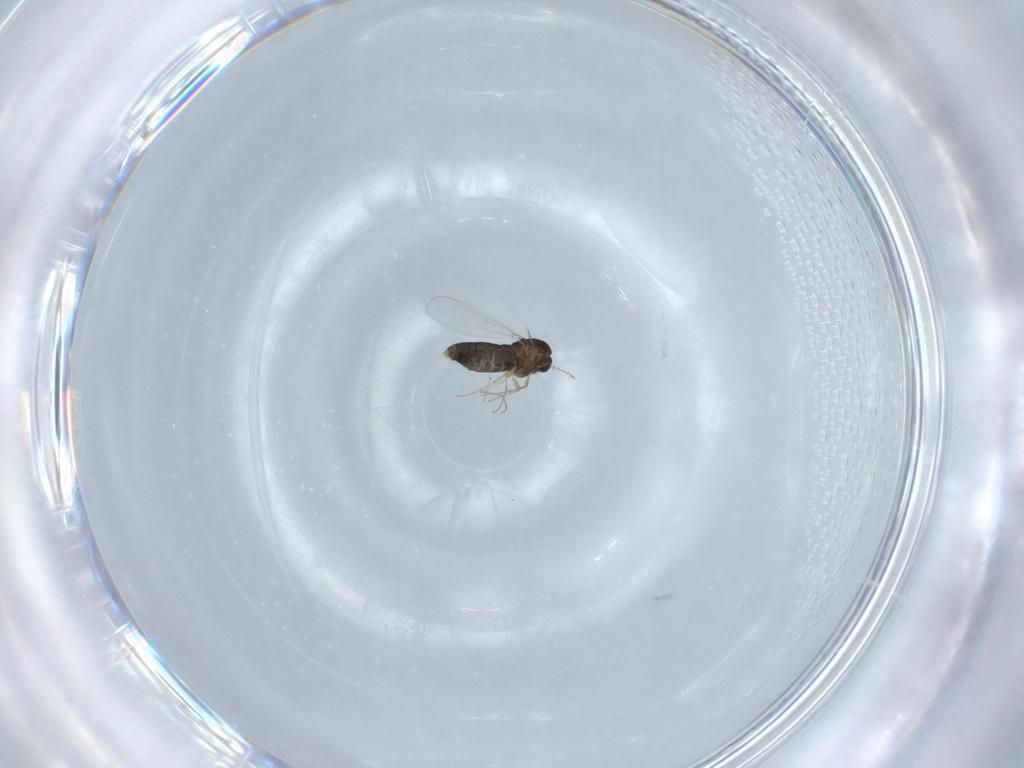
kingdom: Animalia
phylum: Arthropoda
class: Insecta
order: Diptera
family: Chironomidae
